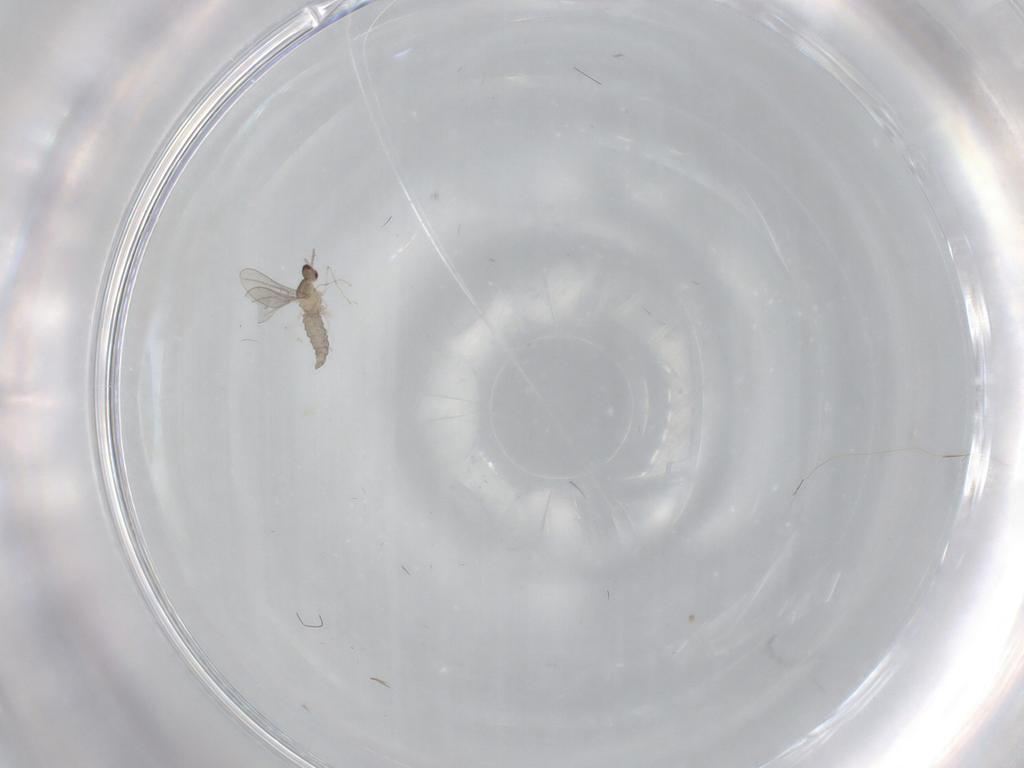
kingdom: Animalia
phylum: Arthropoda
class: Insecta
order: Diptera
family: Cecidomyiidae
